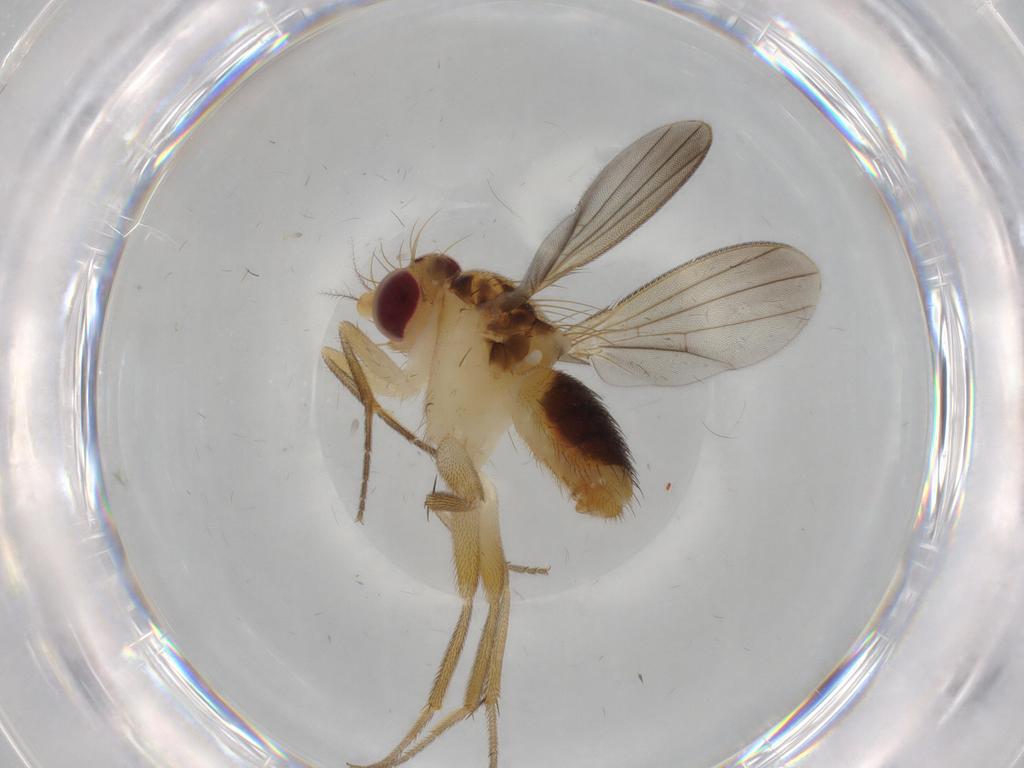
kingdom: Animalia
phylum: Arthropoda
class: Insecta
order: Diptera
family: Agromyzidae
